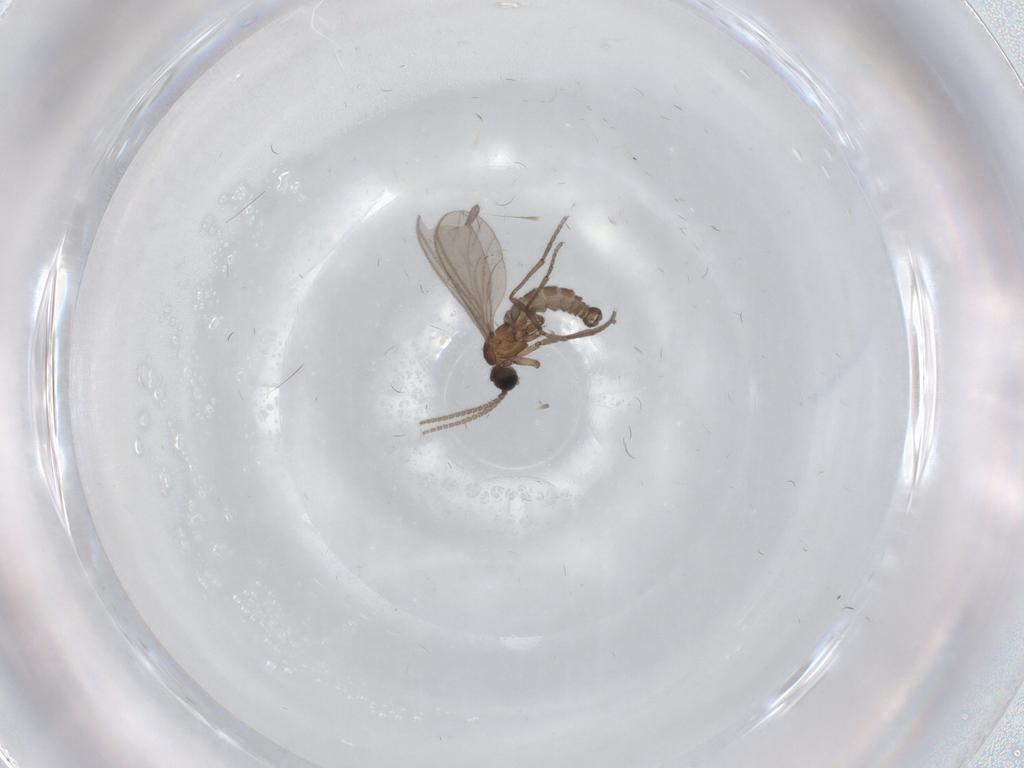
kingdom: Animalia
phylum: Arthropoda
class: Insecta
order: Diptera
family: Sciaridae
